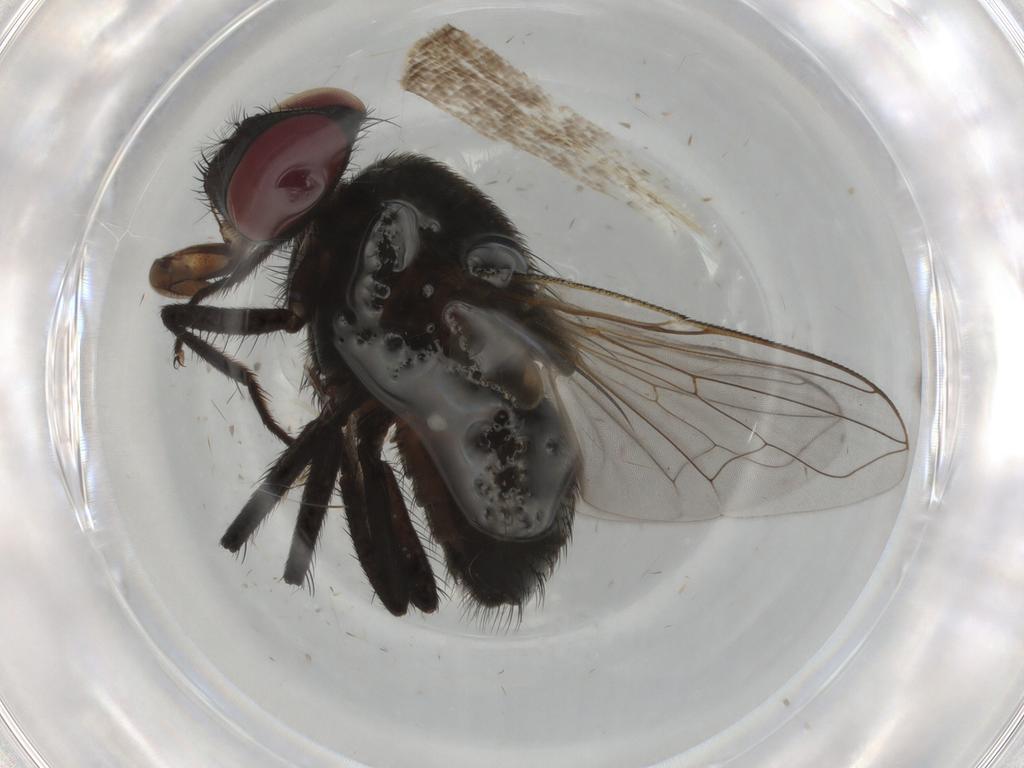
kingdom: Animalia
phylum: Arthropoda
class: Insecta
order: Diptera
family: Muscidae
